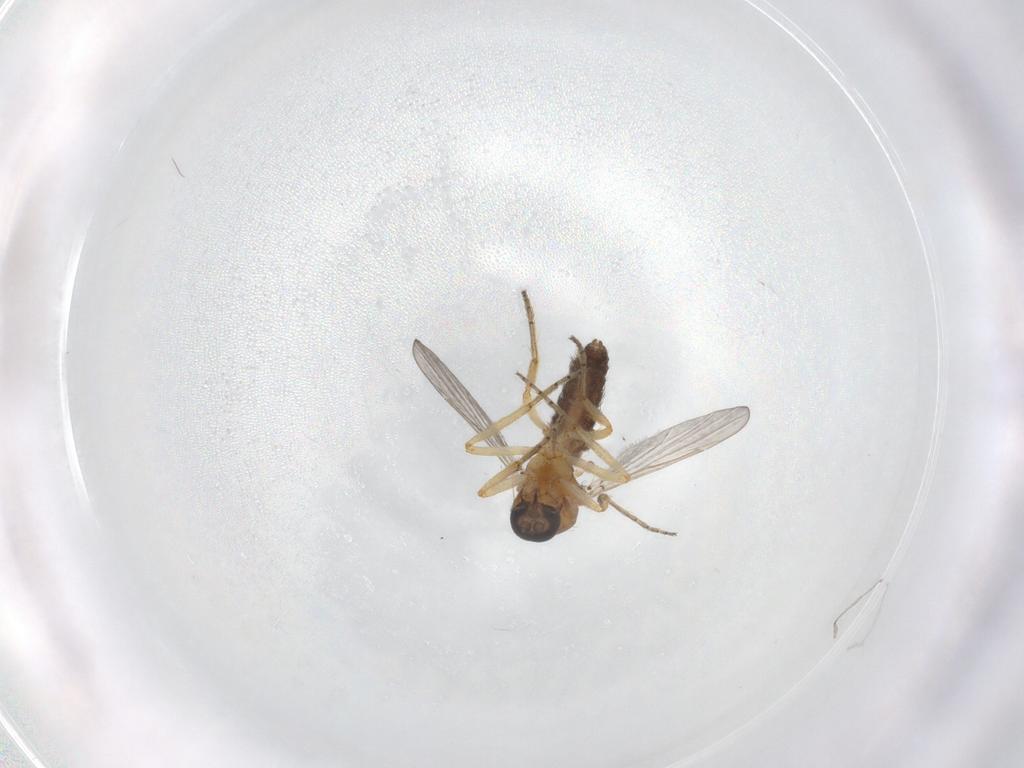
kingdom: Animalia
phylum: Arthropoda
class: Insecta
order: Diptera
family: Cecidomyiidae
